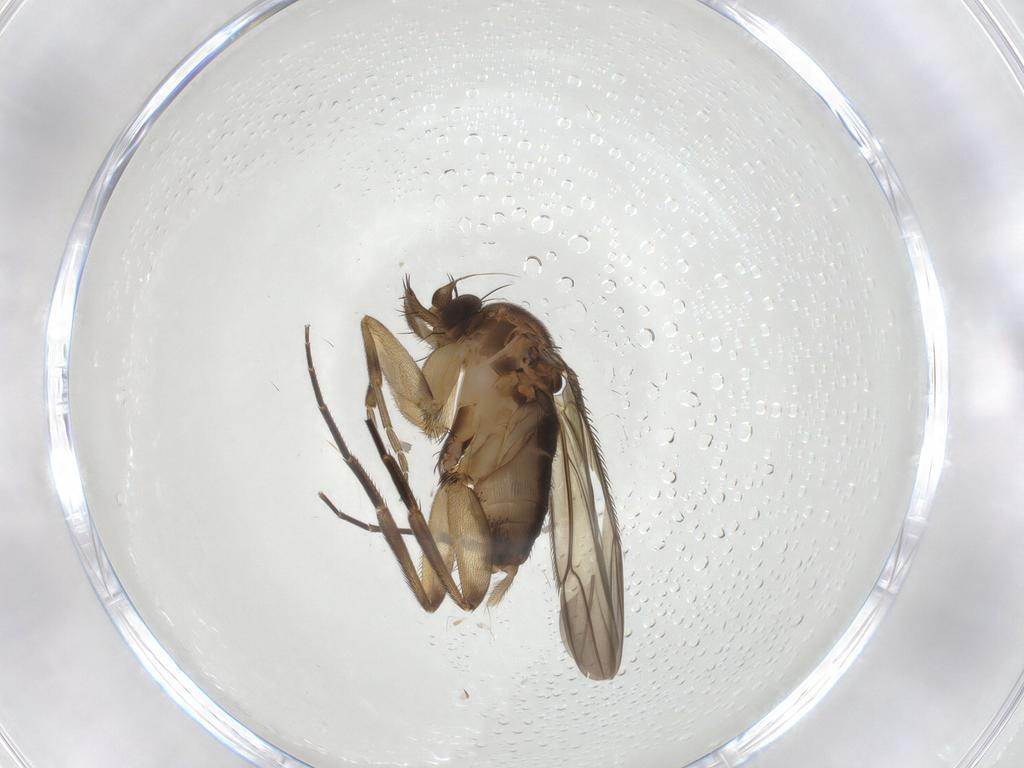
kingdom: Animalia
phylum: Arthropoda
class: Insecta
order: Diptera
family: Phoridae
